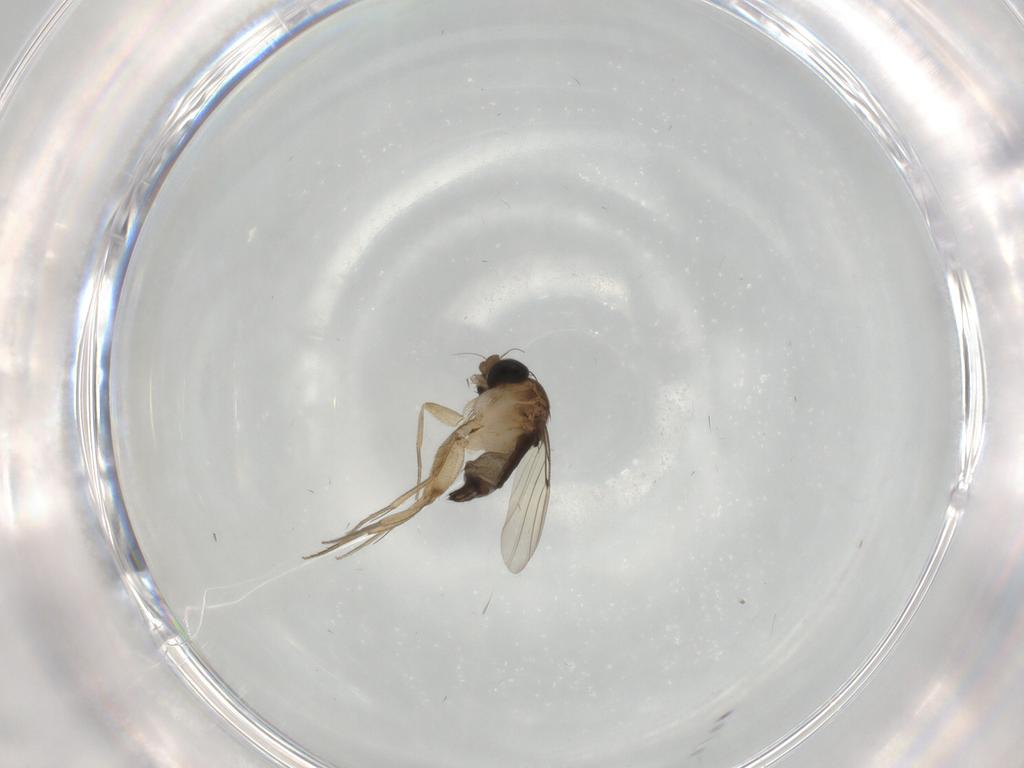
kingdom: Animalia
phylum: Arthropoda
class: Insecta
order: Diptera
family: Phoridae
